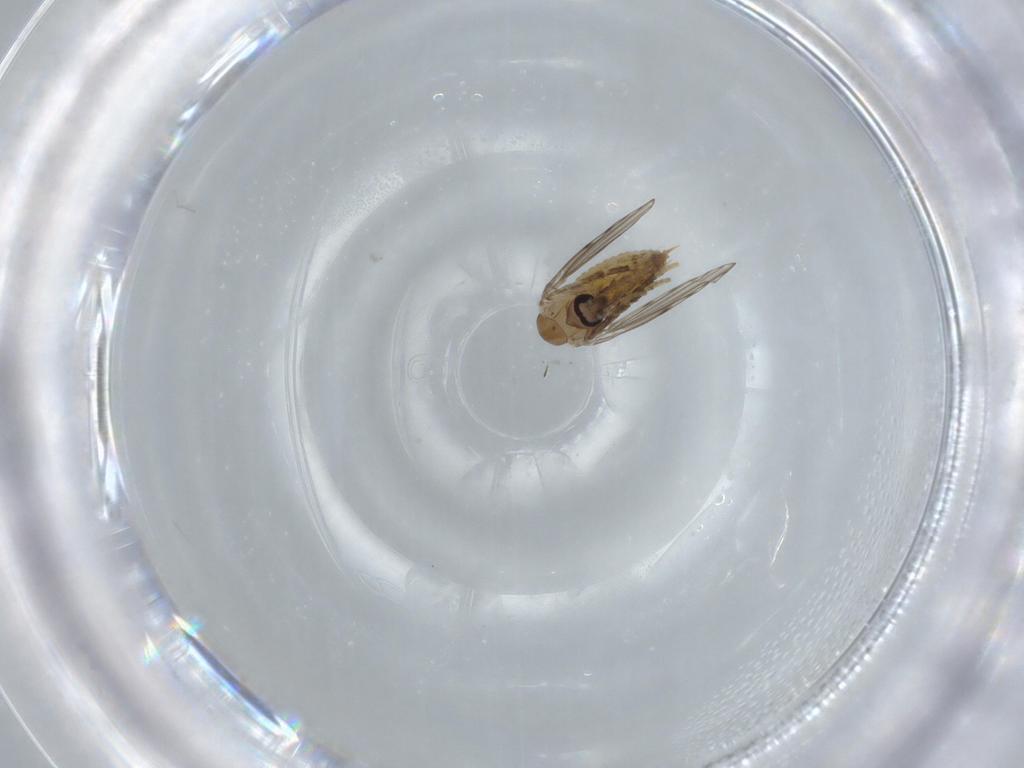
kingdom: Animalia
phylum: Arthropoda
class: Insecta
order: Diptera
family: Psychodidae
